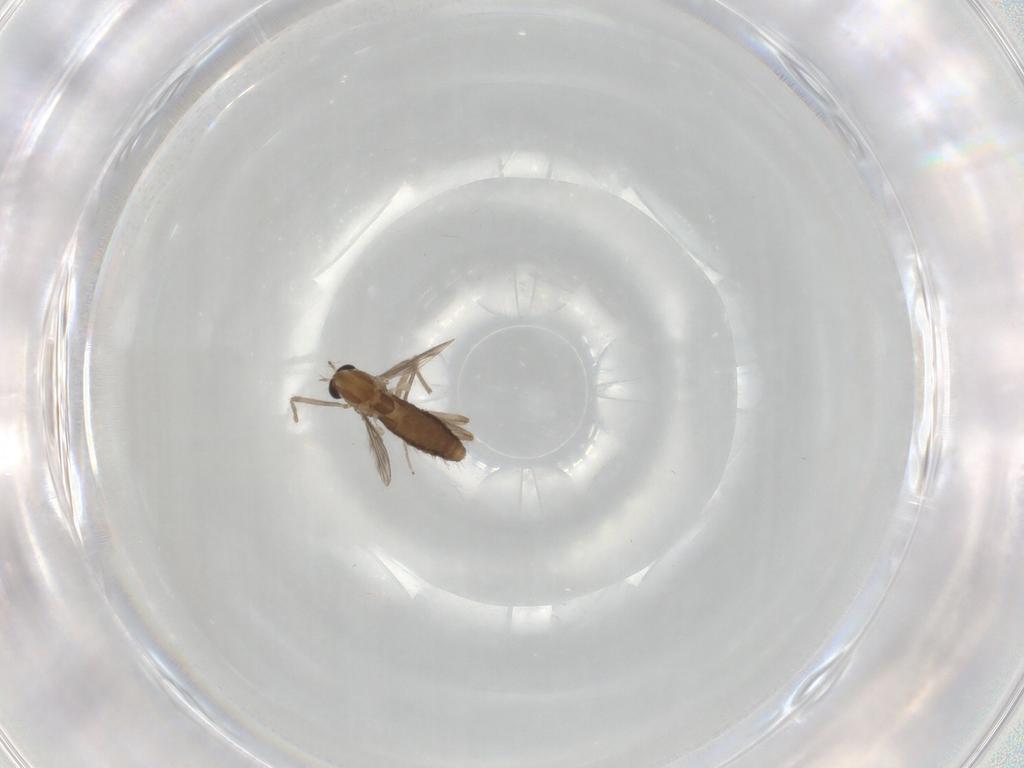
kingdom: Animalia
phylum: Arthropoda
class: Insecta
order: Diptera
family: Chironomidae
